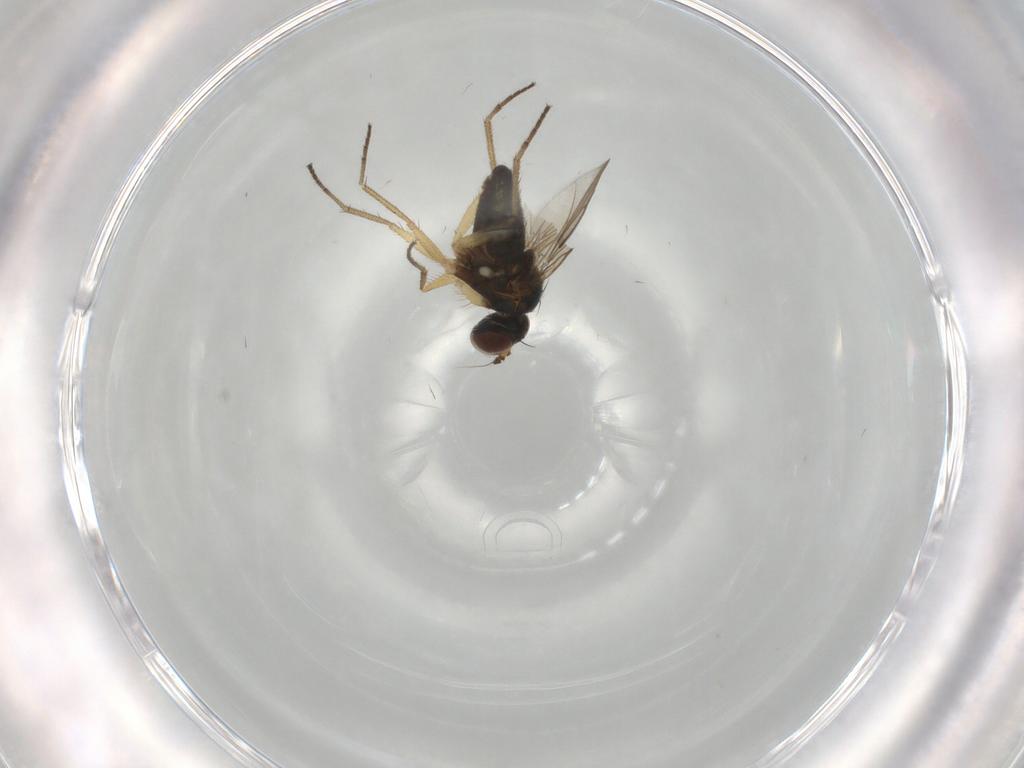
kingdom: Animalia
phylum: Arthropoda
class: Insecta
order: Diptera
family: Dolichopodidae
